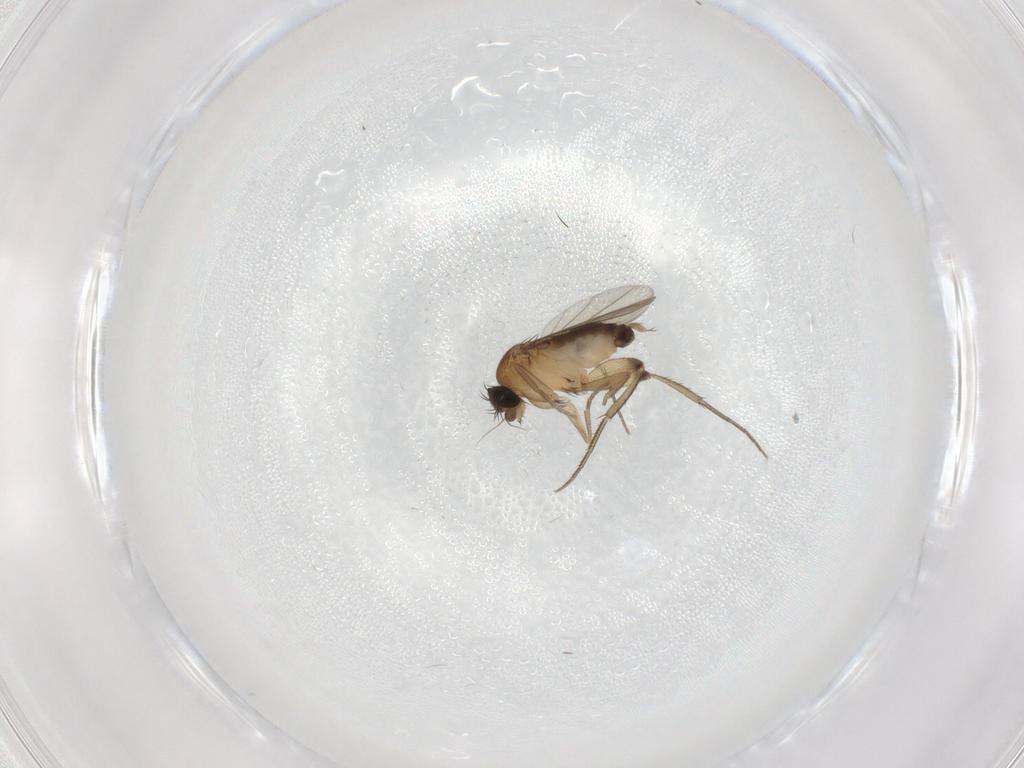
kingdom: Animalia
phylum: Arthropoda
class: Insecta
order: Diptera
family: Phoridae
